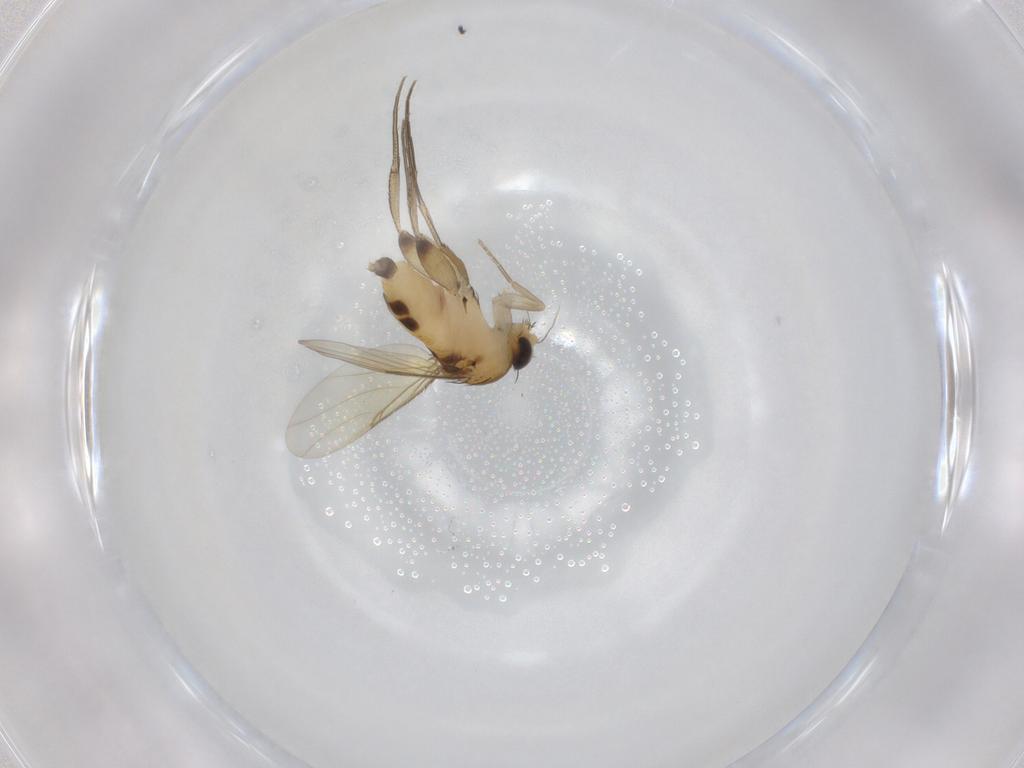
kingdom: Animalia
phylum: Arthropoda
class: Insecta
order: Diptera
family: Phoridae
